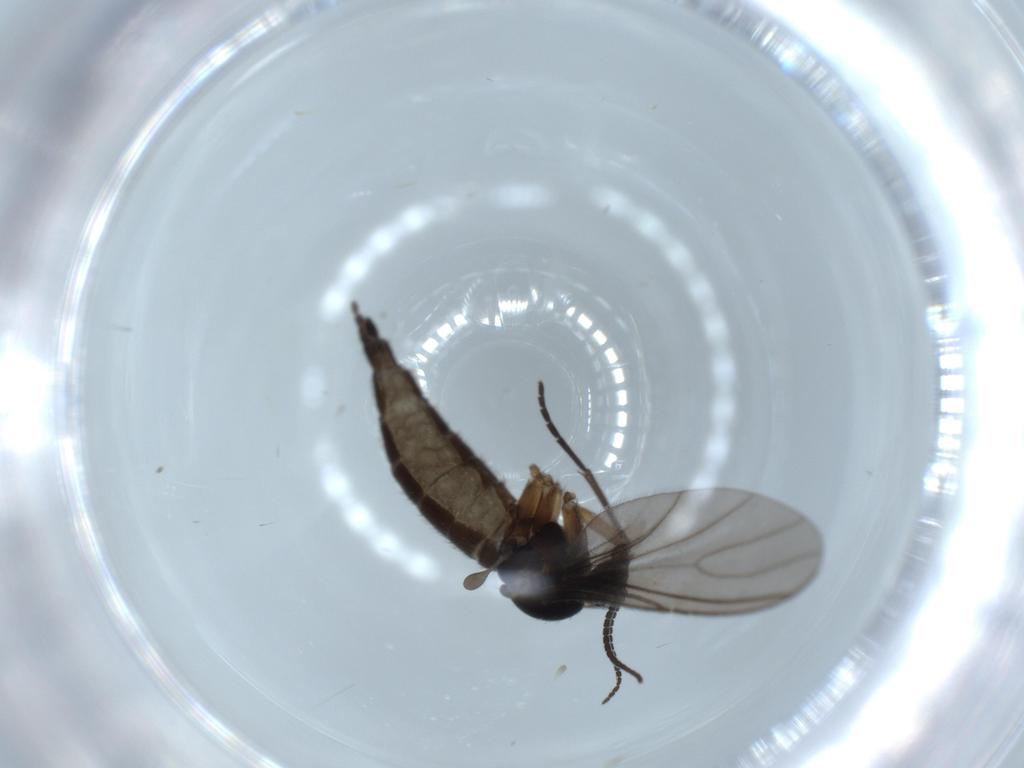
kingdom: Animalia
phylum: Arthropoda
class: Insecta
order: Diptera
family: Sciaridae
